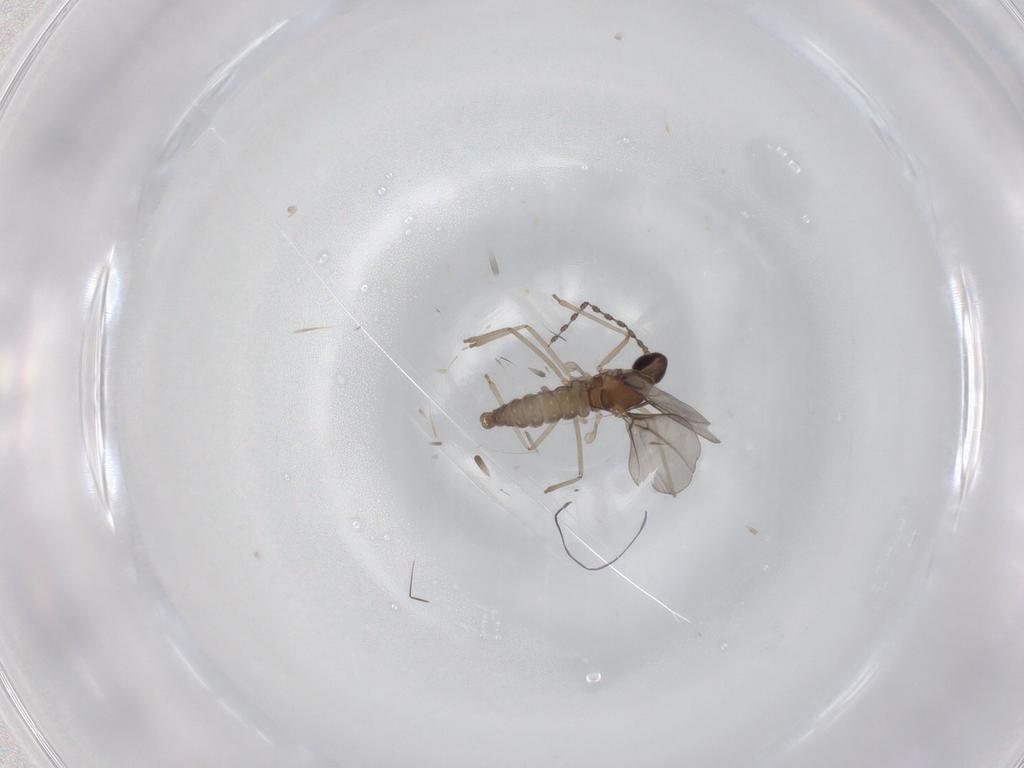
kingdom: Animalia
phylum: Arthropoda
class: Insecta
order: Diptera
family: Cecidomyiidae
